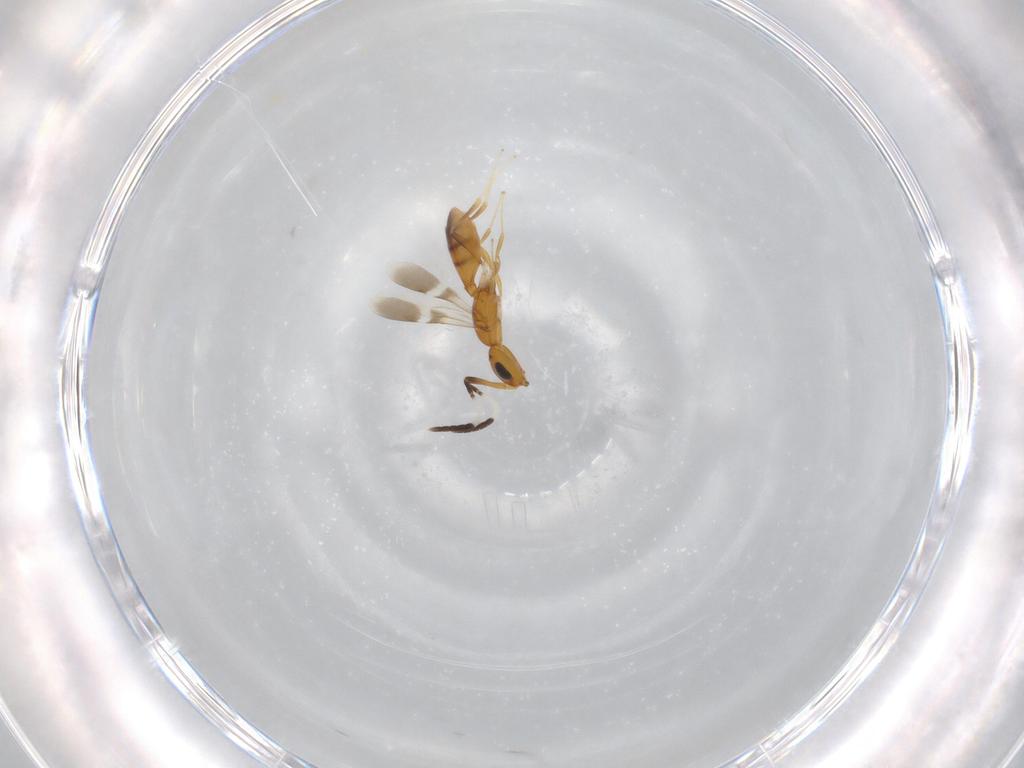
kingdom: Animalia
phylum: Arthropoda
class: Insecta
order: Hymenoptera
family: Scelionidae
